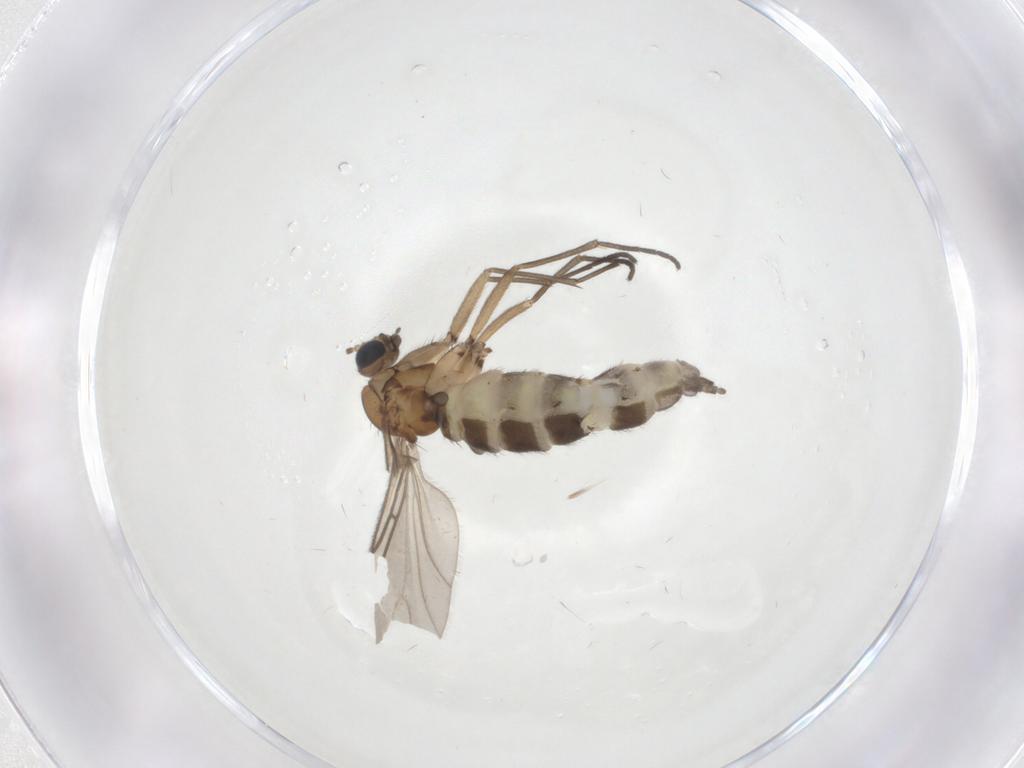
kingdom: Animalia
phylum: Arthropoda
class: Insecta
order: Diptera
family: Sciaridae
